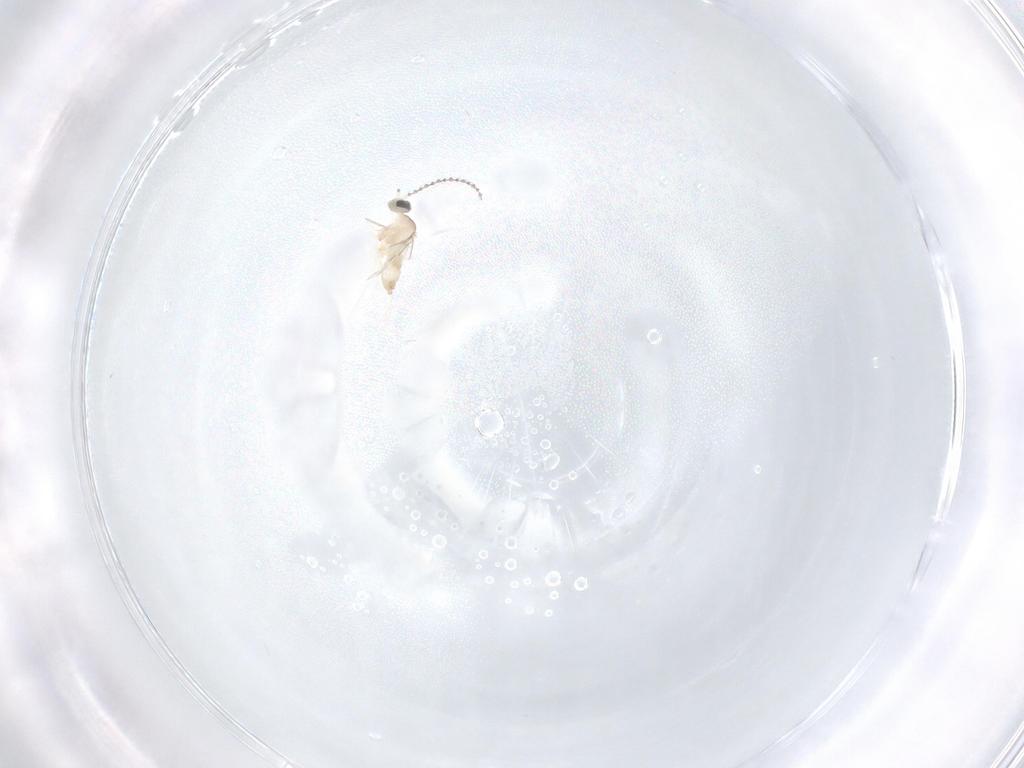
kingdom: Animalia
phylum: Arthropoda
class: Insecta
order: Diptera
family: Cecidomyiidae
